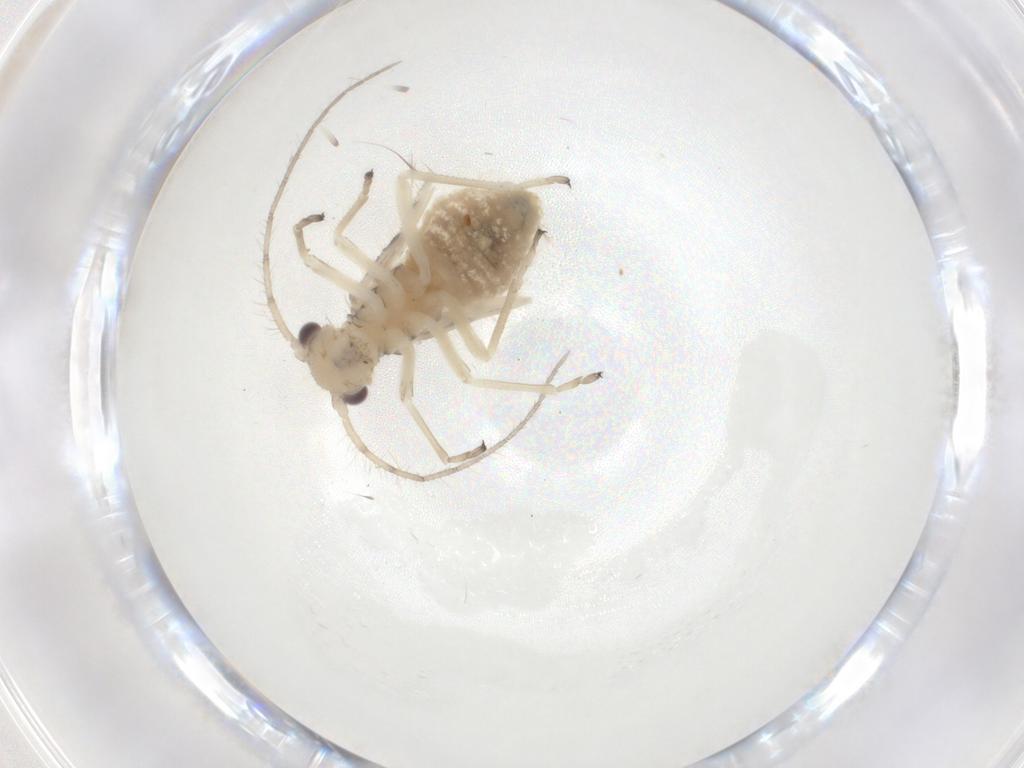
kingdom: Animalia
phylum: Arthropoda
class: Insecta
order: Psocodea
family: Amphipsocidae
